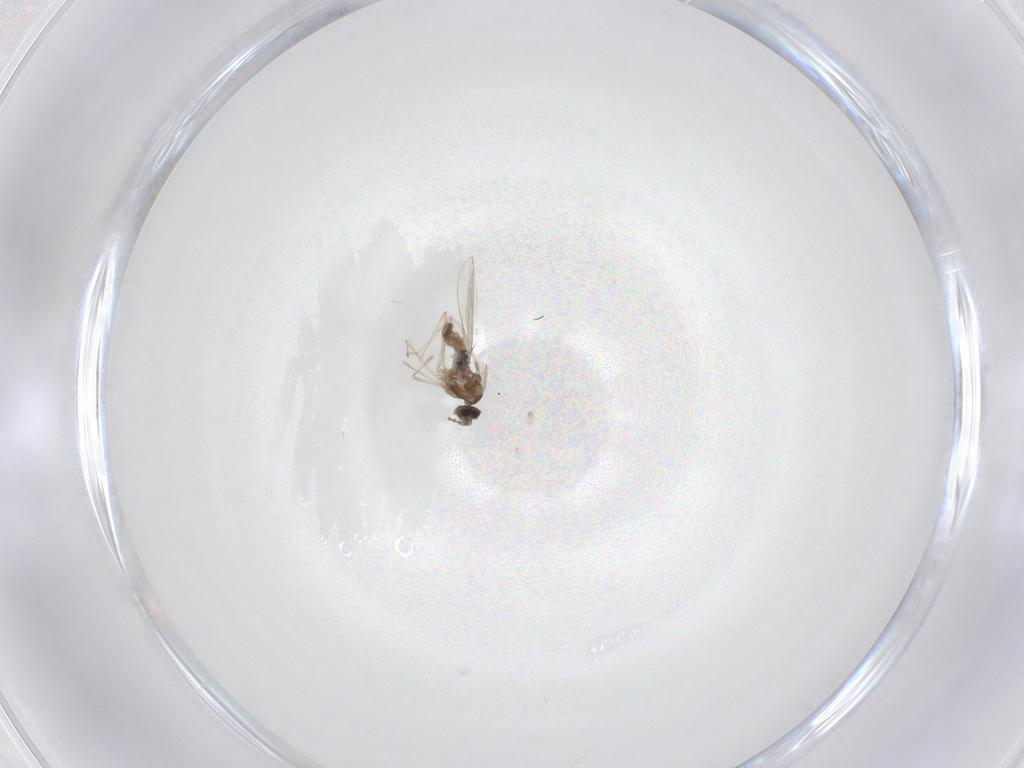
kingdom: Animalia
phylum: Arthropoda
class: Insecta
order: Diptera
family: Cecidomyiidae
